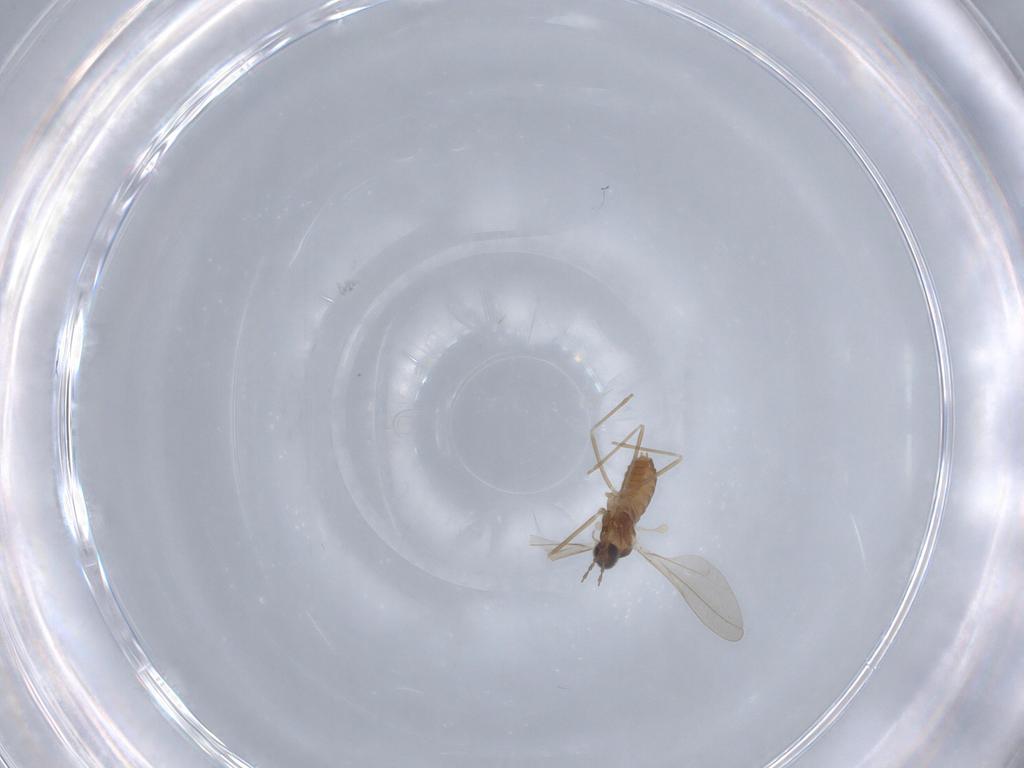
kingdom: Animalia
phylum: Arthropoda
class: Insecta
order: Diptera
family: Cecidomyiidae
